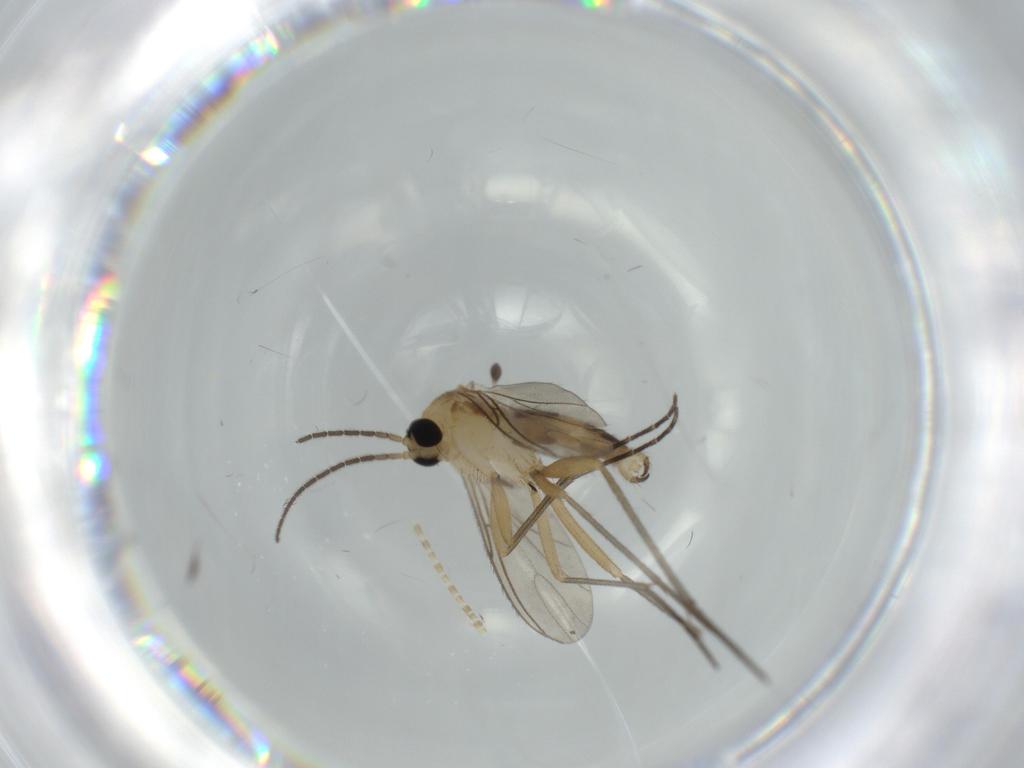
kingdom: Animalia
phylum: Arthropoda
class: Insecta
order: Diptera
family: Sciaridae
